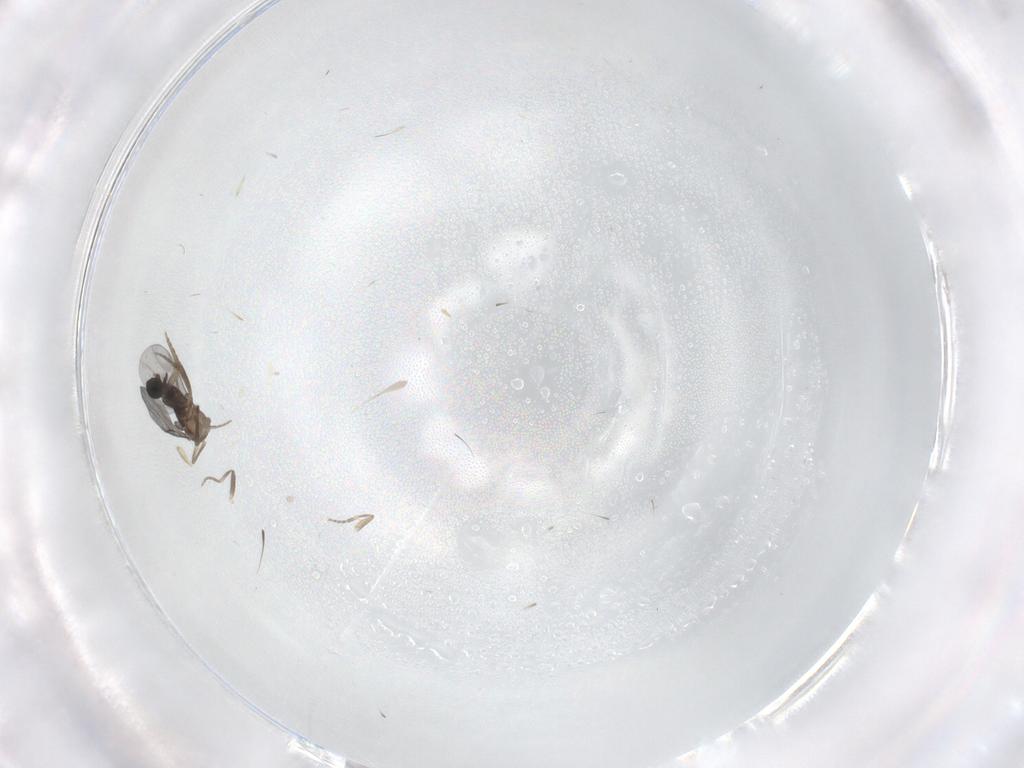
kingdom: Animalia
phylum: Arthropoda
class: Insecta
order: Diptera
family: Phoridae
